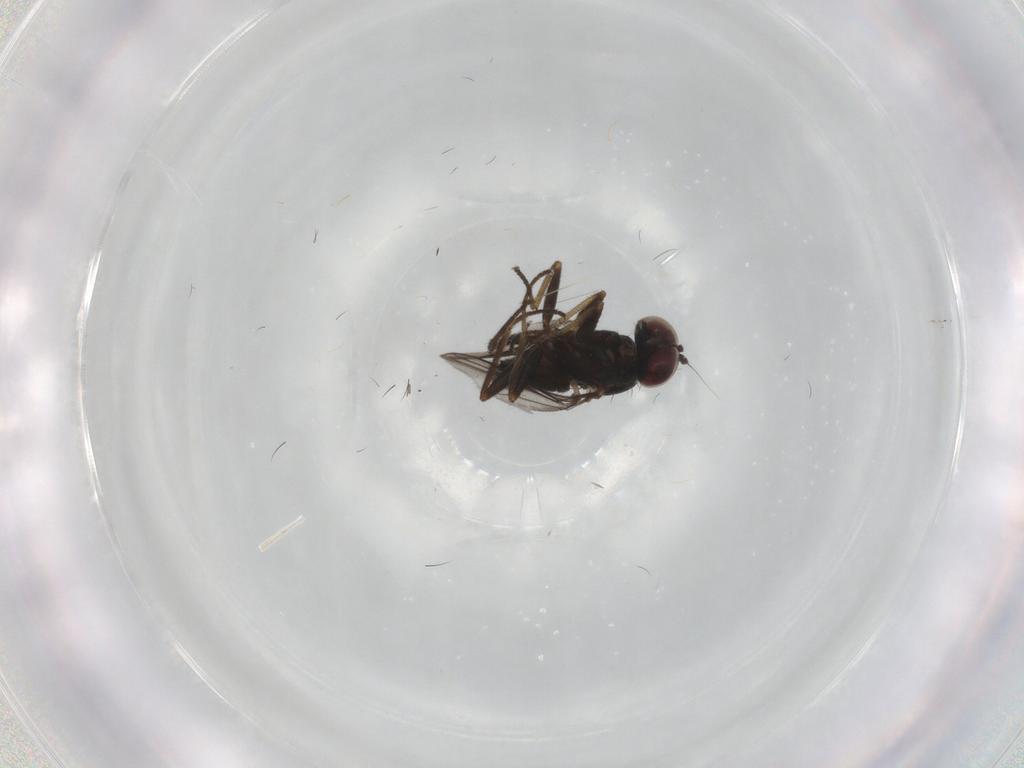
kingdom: Animalia
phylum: Arthropoda
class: Insecta
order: Diptera
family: Dolichopodidae
